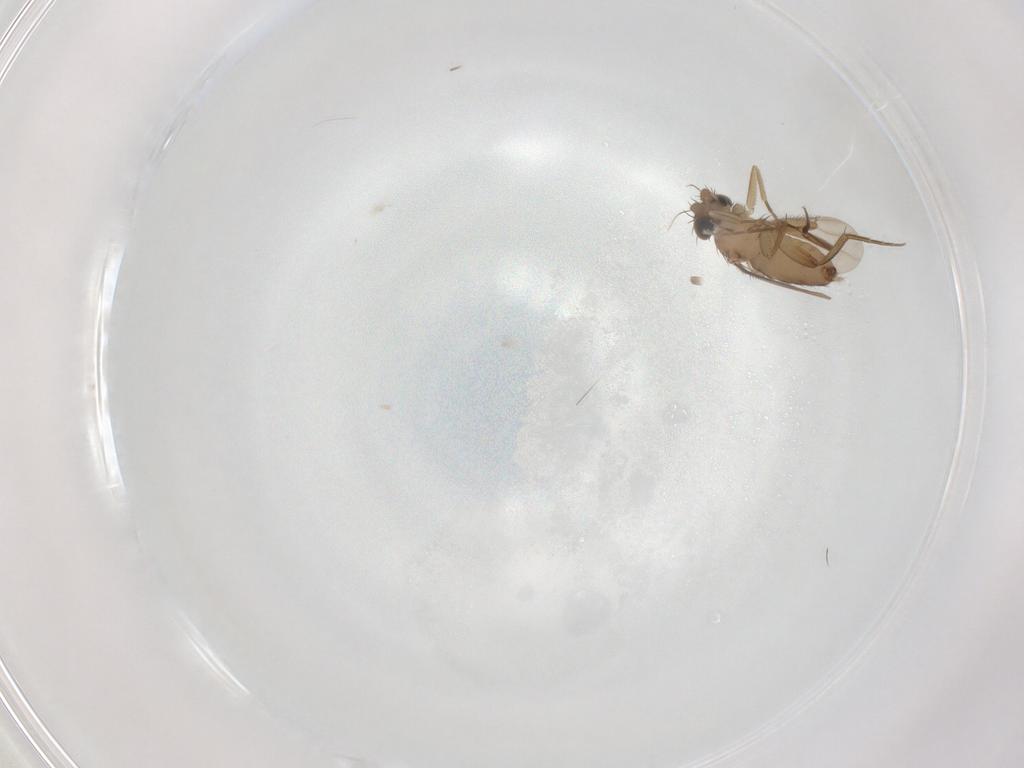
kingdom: Animalia
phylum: Arthropoda
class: Insecta
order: Diptera
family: Phoridae
